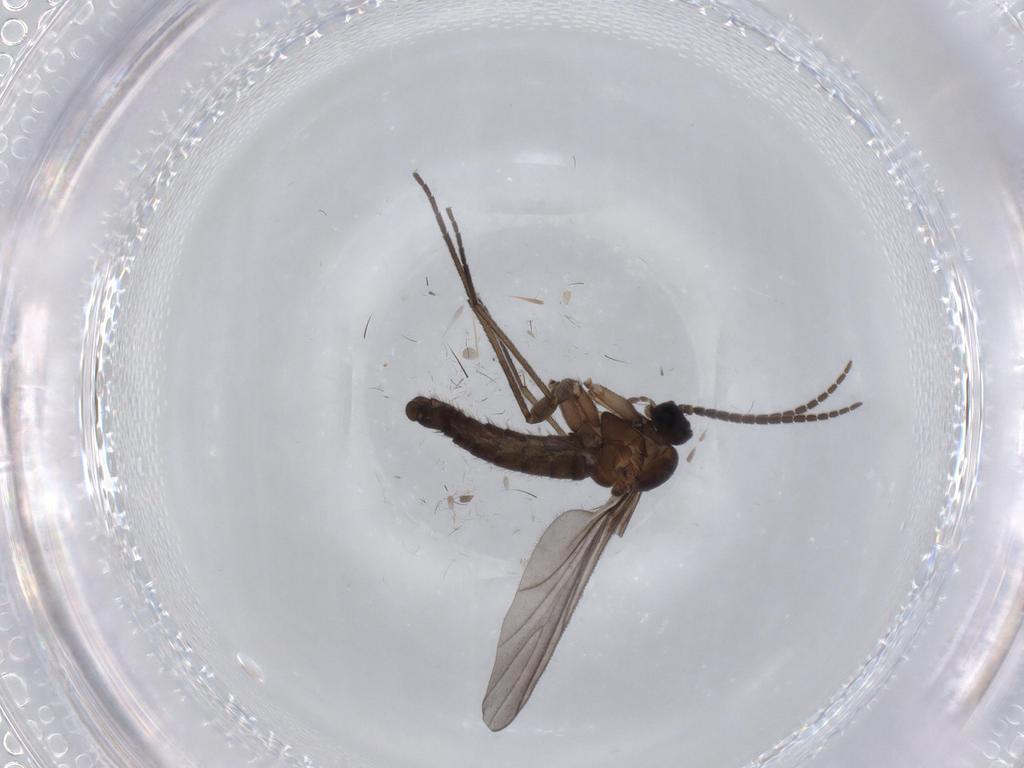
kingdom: Animalia
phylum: Arthropoda
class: Insecta
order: Diptera
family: Sciaridae
